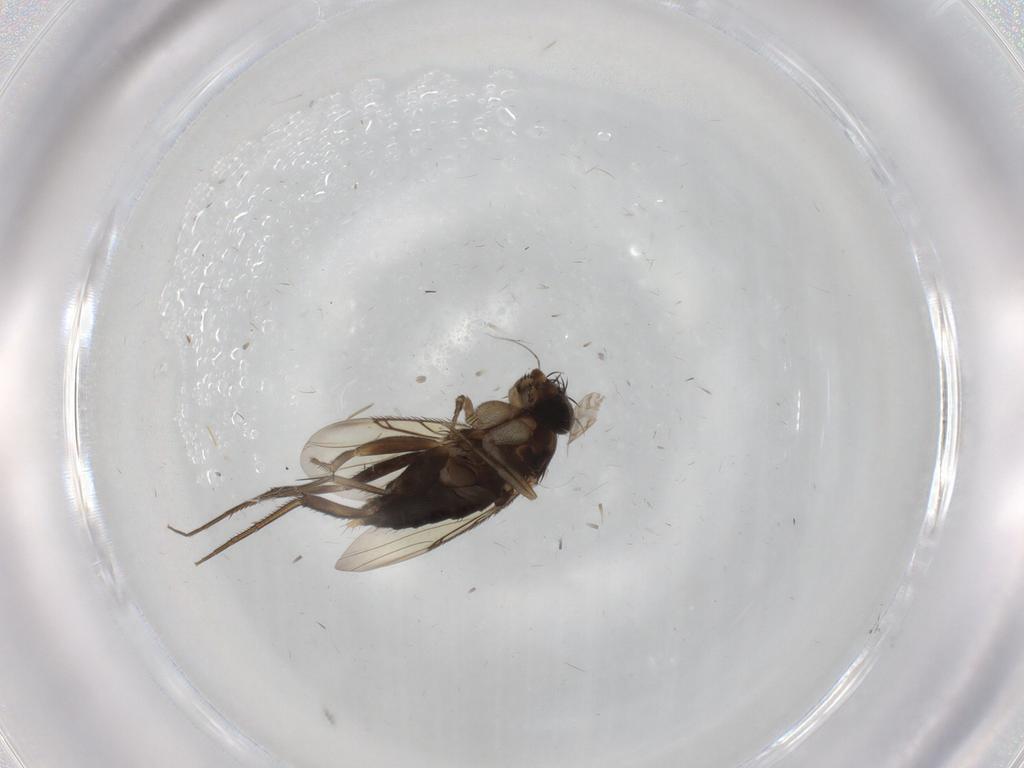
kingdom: Animalia
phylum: Arthropoda
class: Insecta
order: Diptera
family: Phoridae
